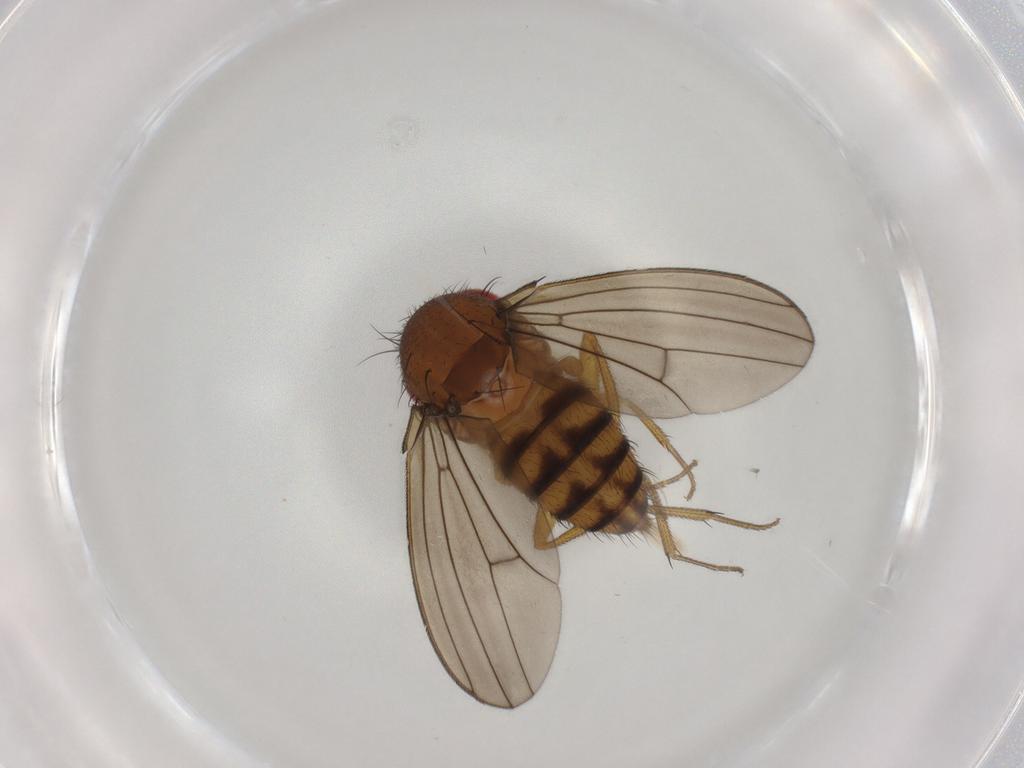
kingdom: Animalia
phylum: Arthropoda
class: Insecta
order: Diptera
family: Drosophilidae
